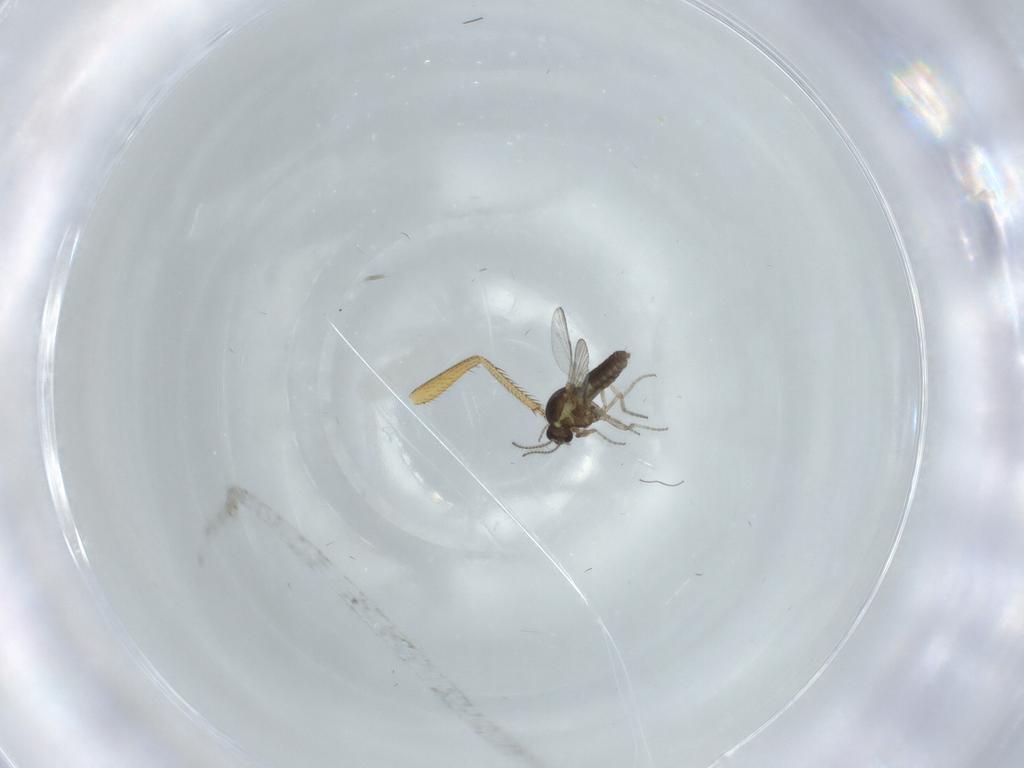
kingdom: Animalia
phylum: Arthropoda
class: Insecta
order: Diptera
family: Ceratopogonidae
